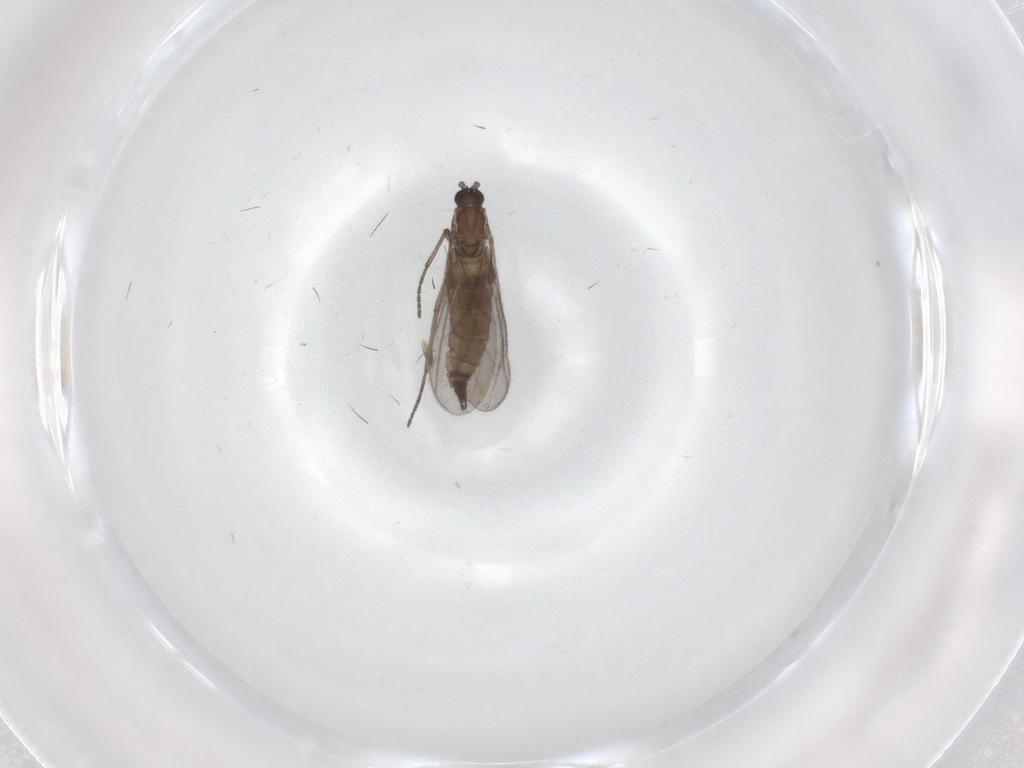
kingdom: Animalia
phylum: Arthropoda
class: Insecta
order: Diptera
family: Sciaridae
